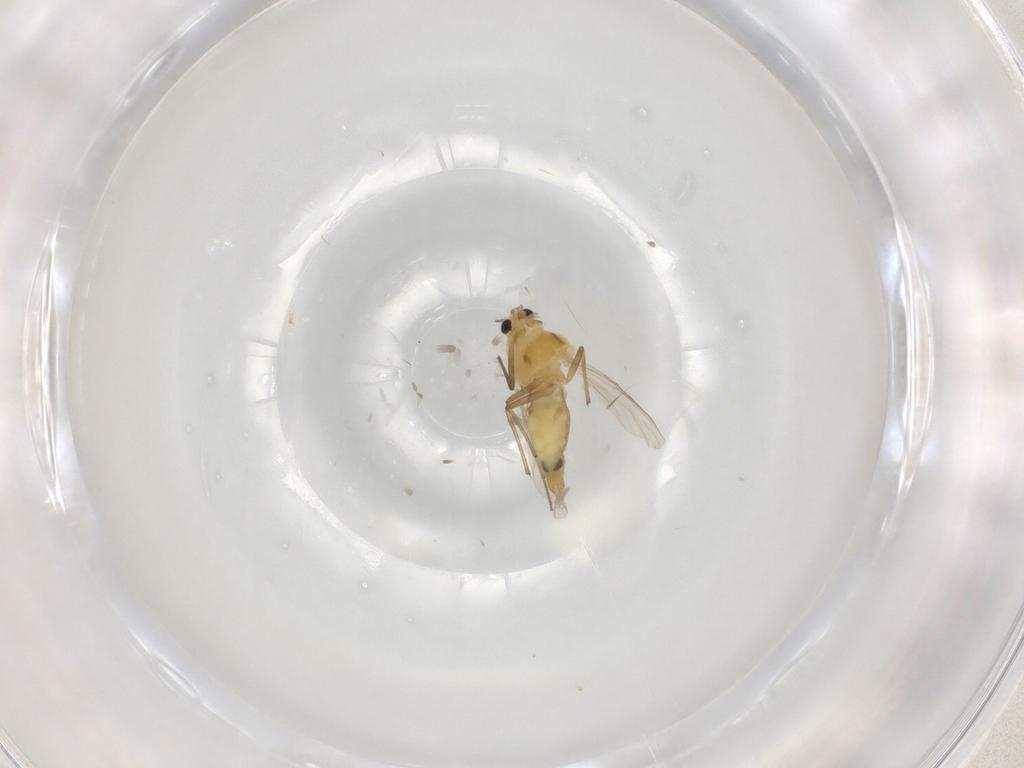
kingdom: Animalia
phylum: Arthropoda
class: Insecta
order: Diptera
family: Chironomidae
